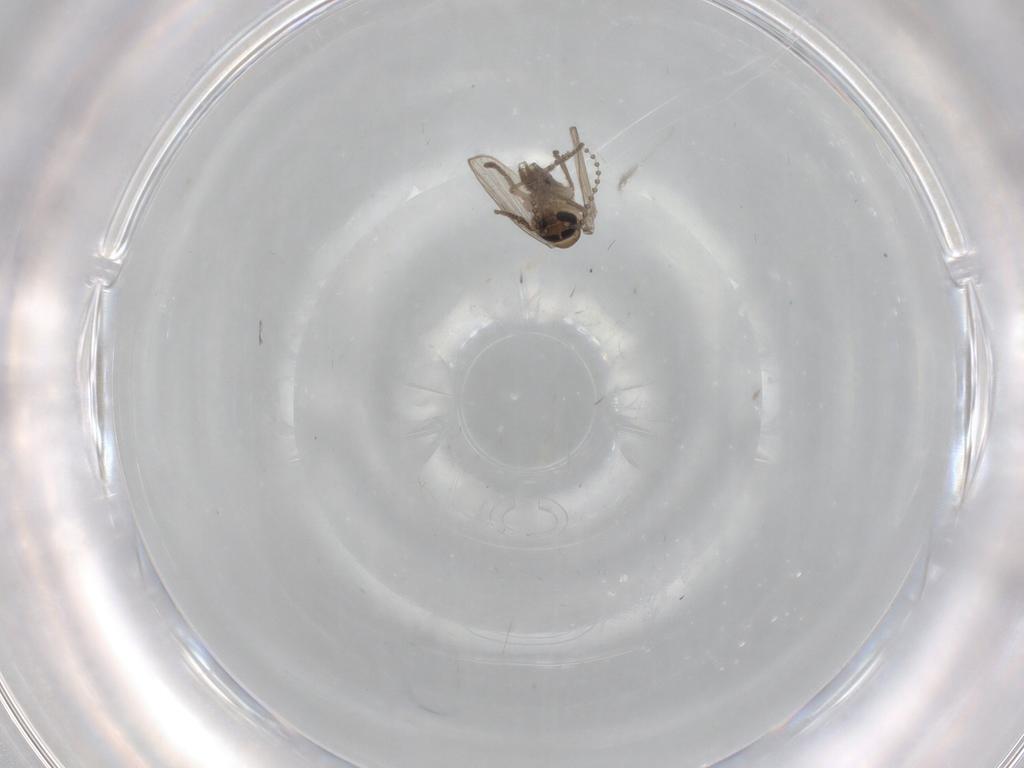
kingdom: Animalia
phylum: Arthropoda
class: Insecta
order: Diptera
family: Psychodidae
